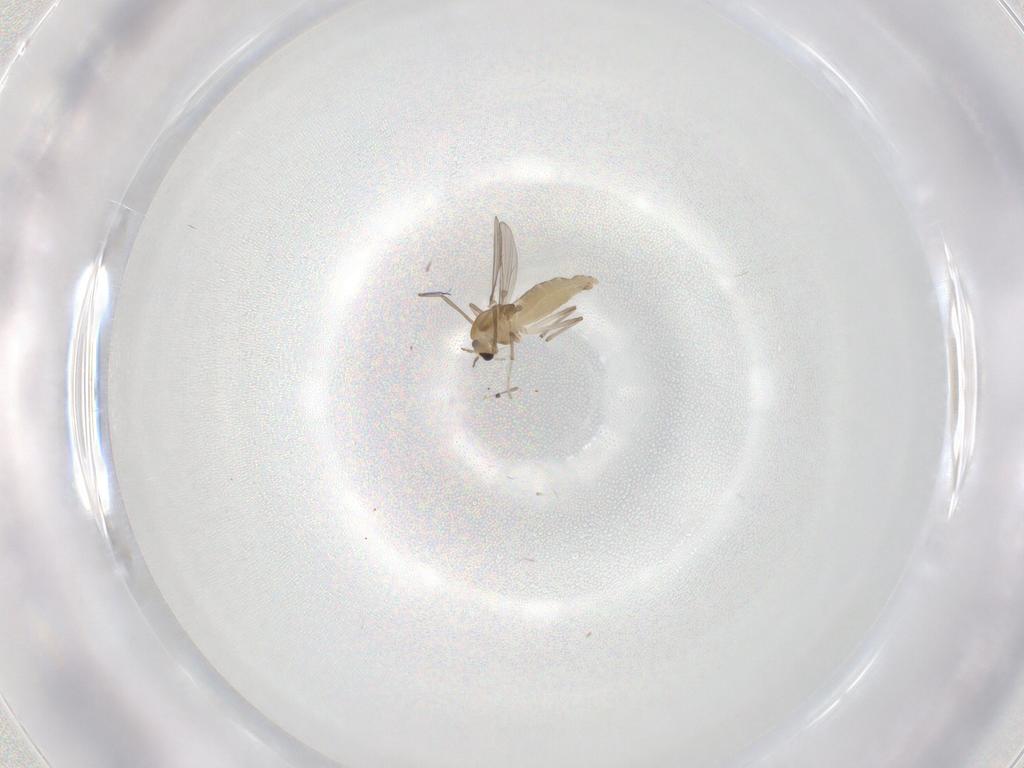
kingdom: Animalia
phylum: Arthropoda
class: Insecta
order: Diptera
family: Chironomidae
